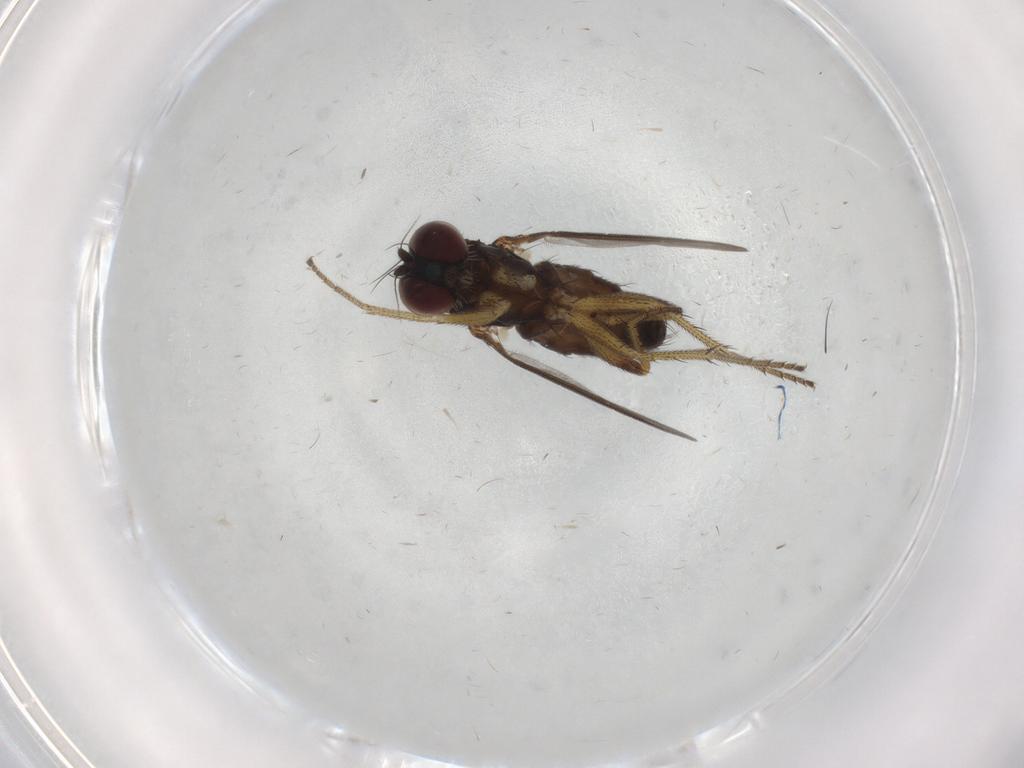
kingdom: Animalia
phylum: Arthropoda
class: Insecta
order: Diptera
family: Dolichopodidae
